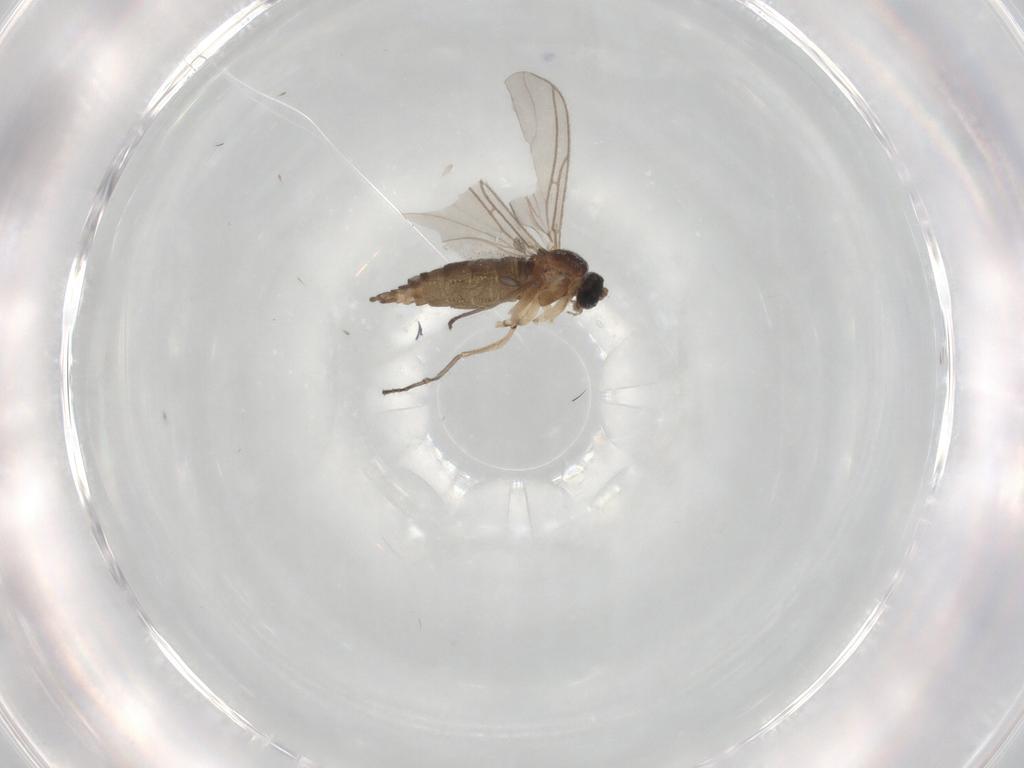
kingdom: Animalia
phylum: Arthropoda
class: Insecta
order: Diptera
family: Sciaridae
